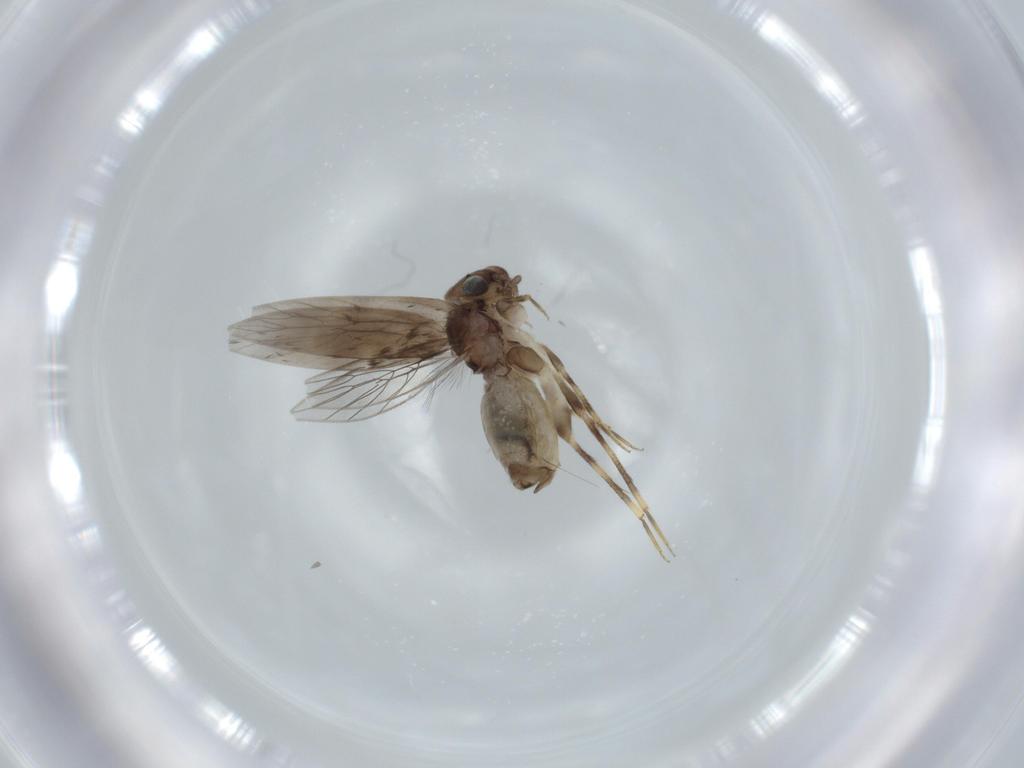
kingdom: Animalia
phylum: Arthropoda
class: Insecta
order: Psocodea
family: Lepidopsocidae
